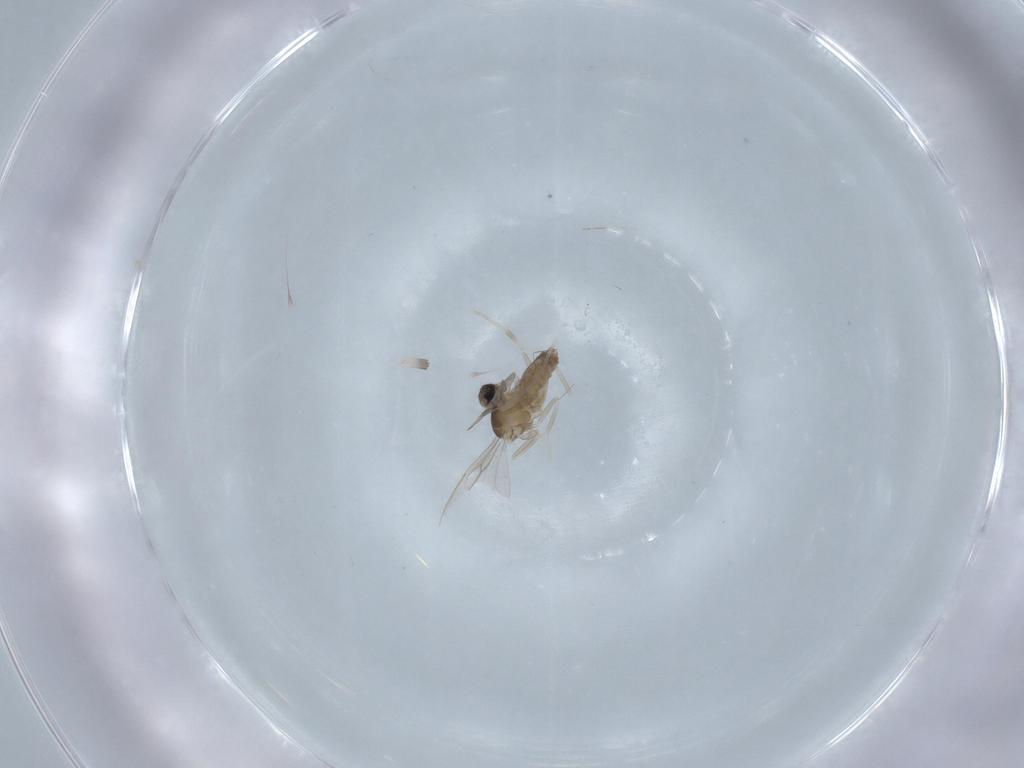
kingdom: Animalia
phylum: Arthropoda
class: Insecta
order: Diptera
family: Cecidomyiidae
